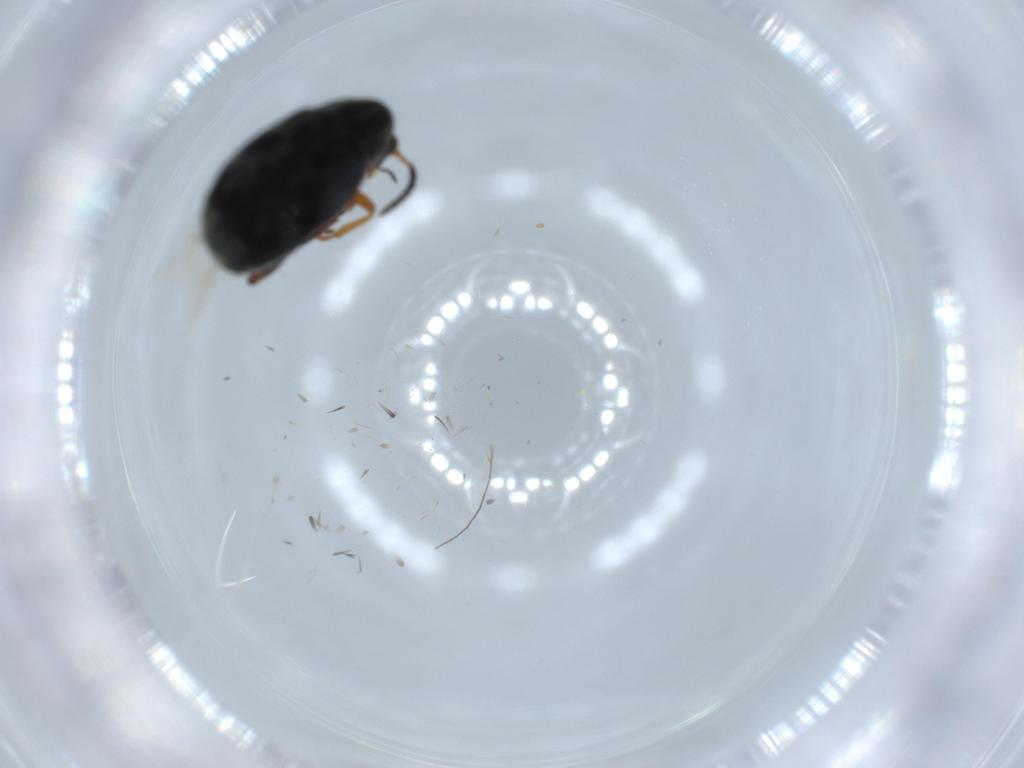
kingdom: Animalia
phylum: Arthropoda
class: Insecta
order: Coleoptera
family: Chrysomelidae
